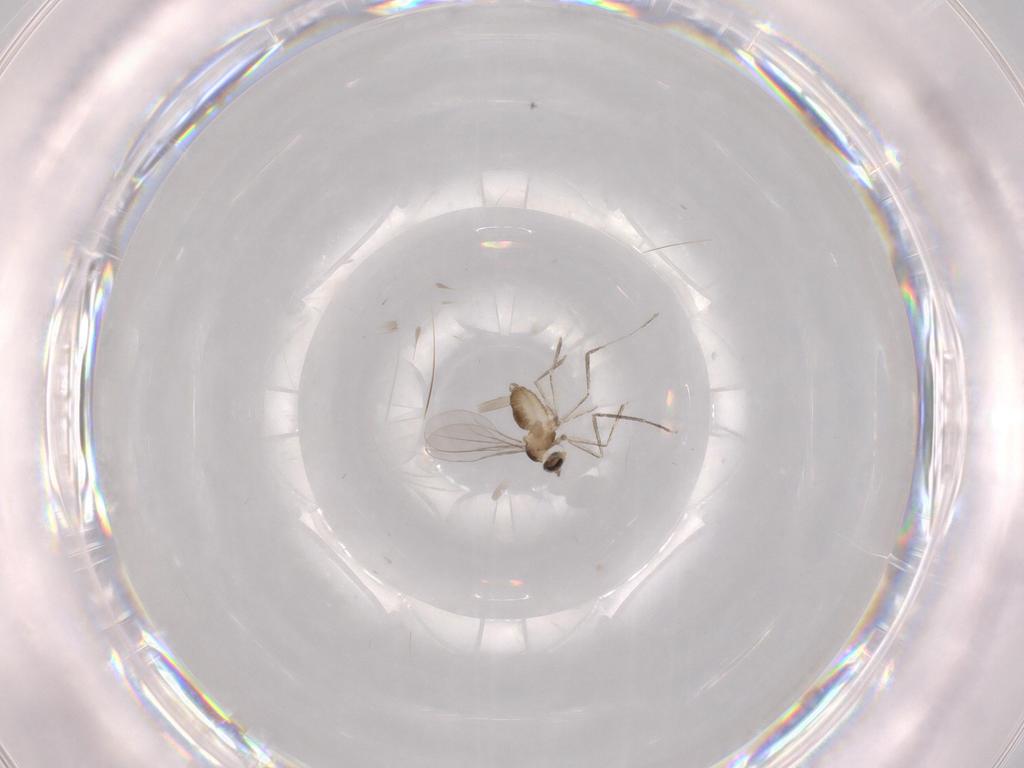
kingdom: Animalia
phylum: Arthropoda
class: Insecta
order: Diptera
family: Cecidomyiidae
